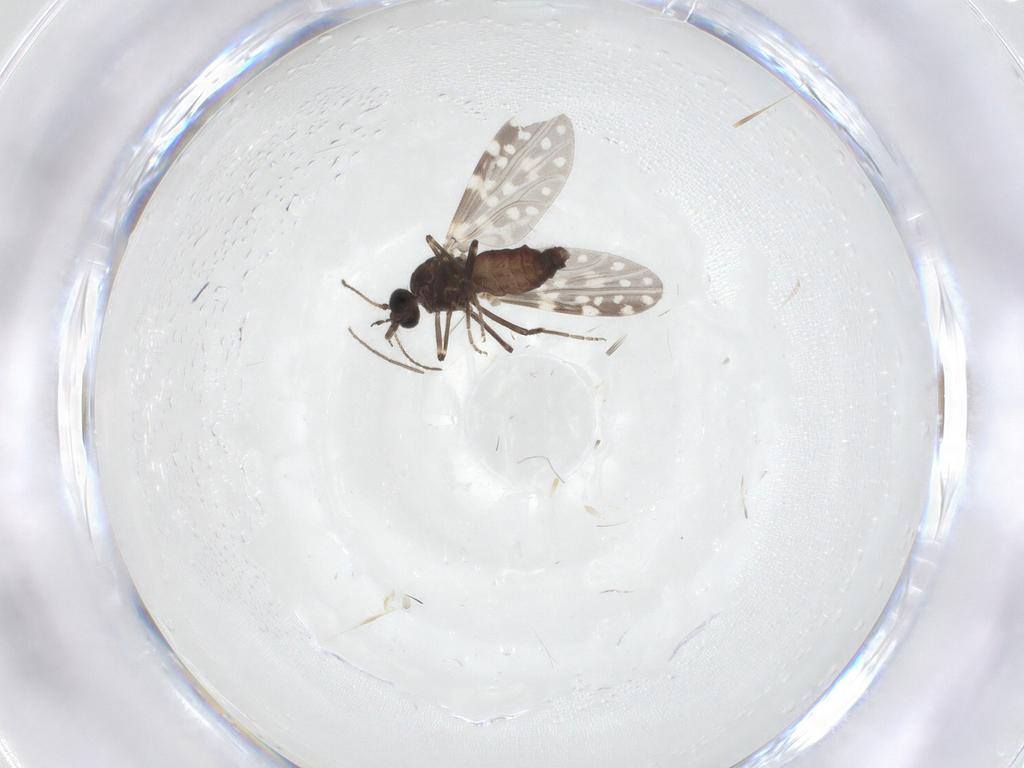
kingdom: Animalia
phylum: Arthropoda
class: Insecta
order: Diptera
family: Ceratopogonidae
